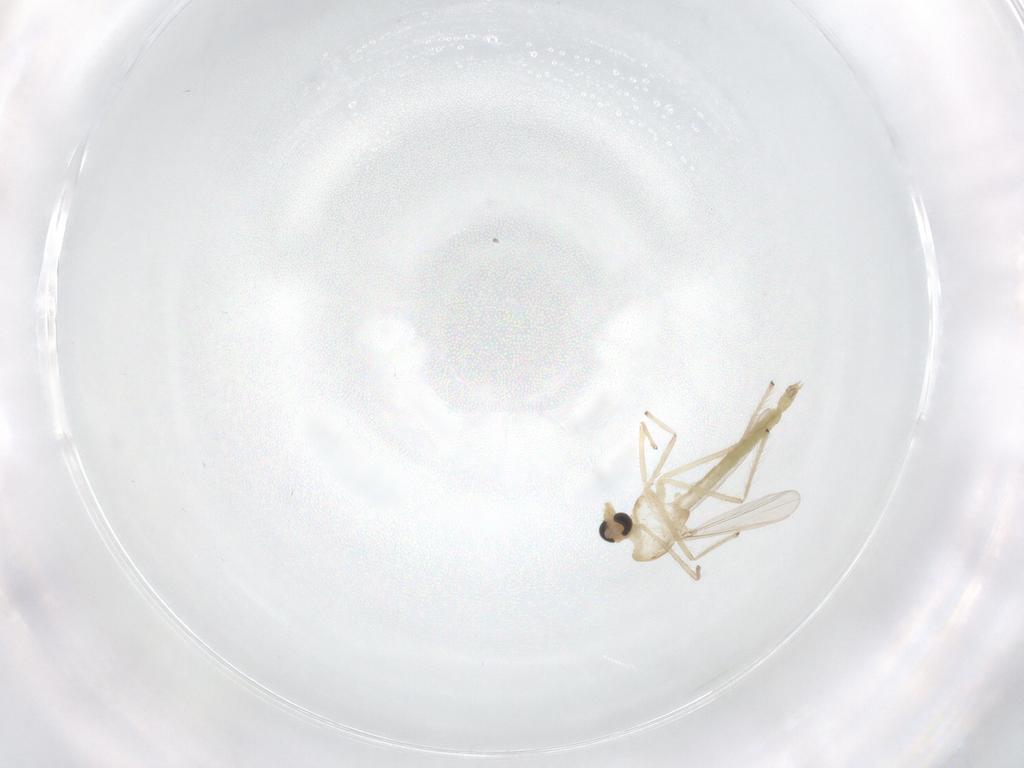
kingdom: Animalia
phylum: Arthropoda
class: Insecta
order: Diptera
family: Chironomidae
